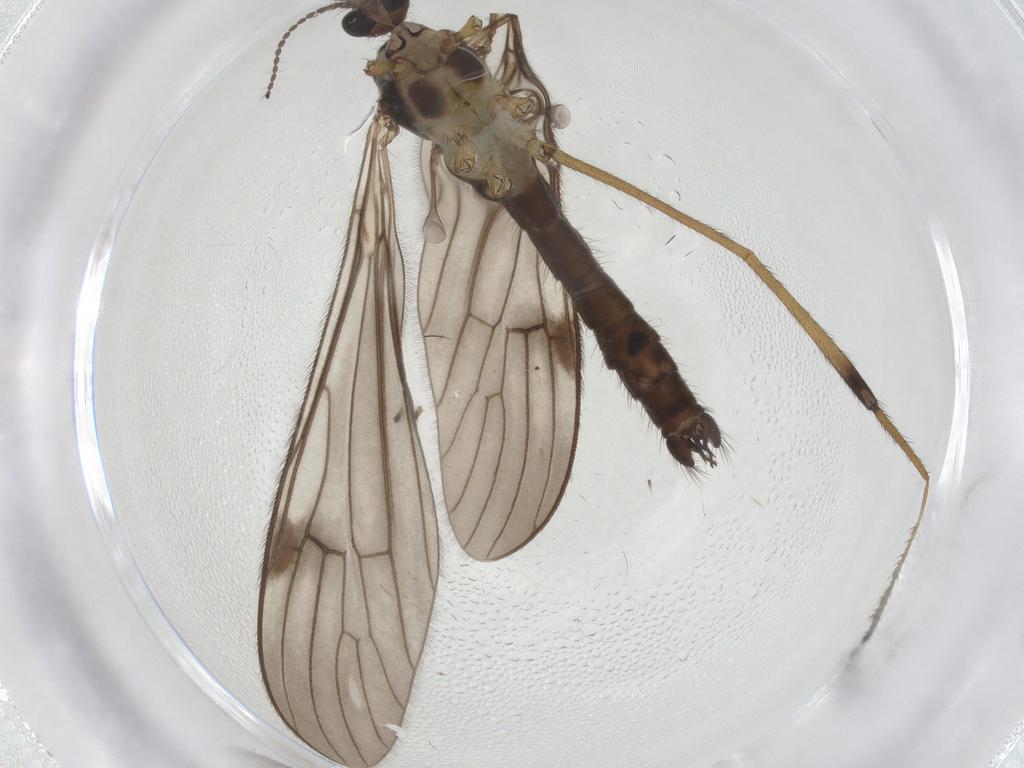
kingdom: Animalia
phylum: Arthropoda
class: Insecta
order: Diptera
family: Limoniidae
